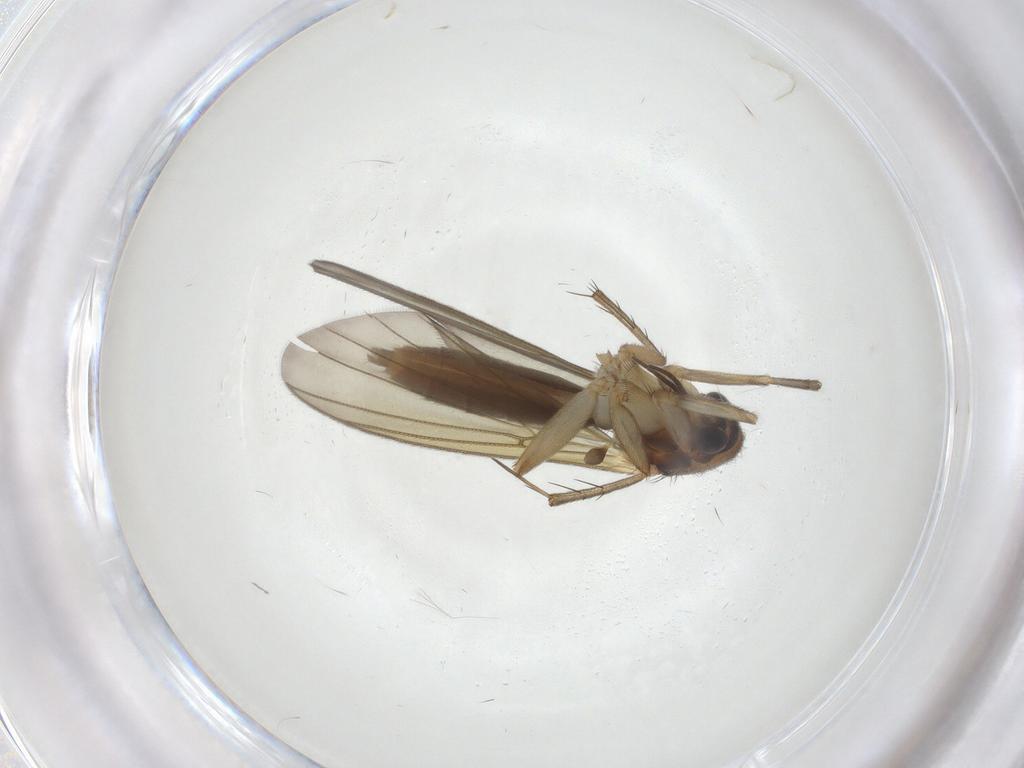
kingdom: Animalia
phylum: Arthropoda
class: Insecta
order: Diptera
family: Mycetophilidae
